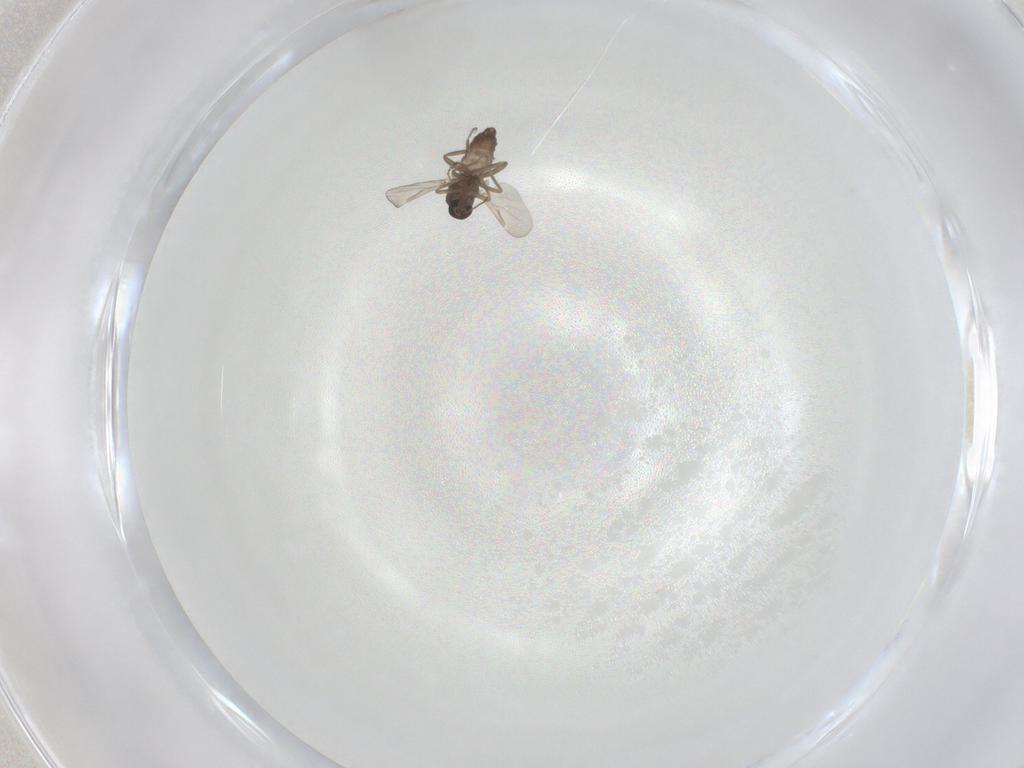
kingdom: Animalia
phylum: Arthropoda
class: Insecta
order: Diptera
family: Ceratopogonidae
